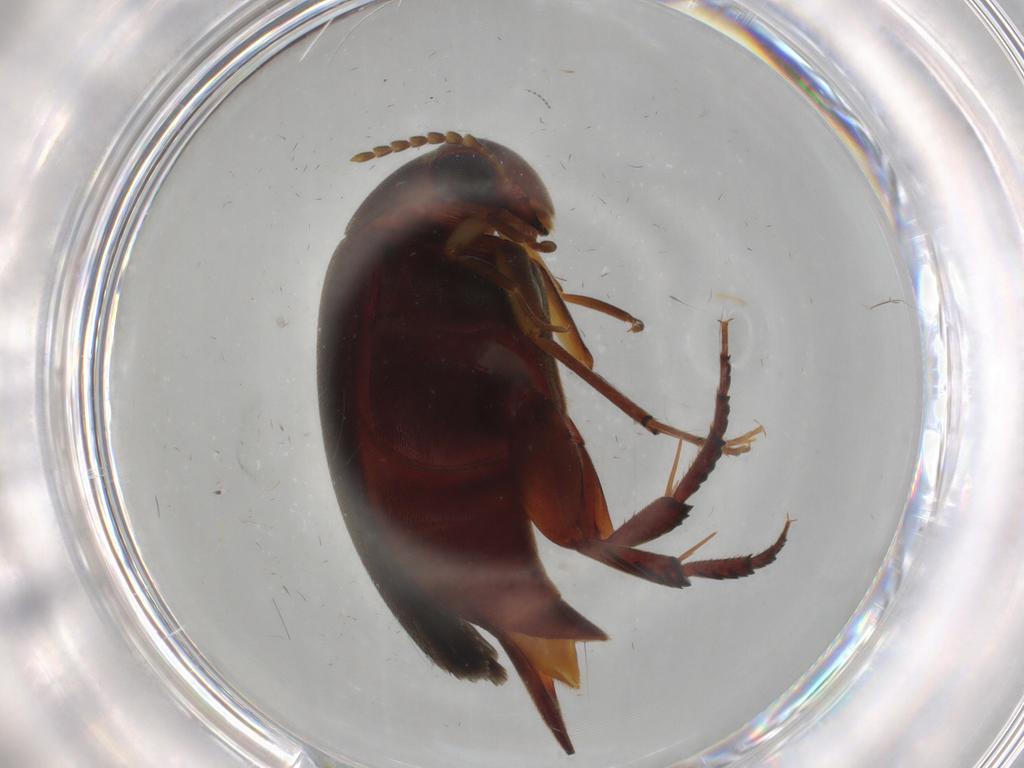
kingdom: Animalia
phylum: Arthropoda
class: Insecta
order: Coleoptera
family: Mordellidae
